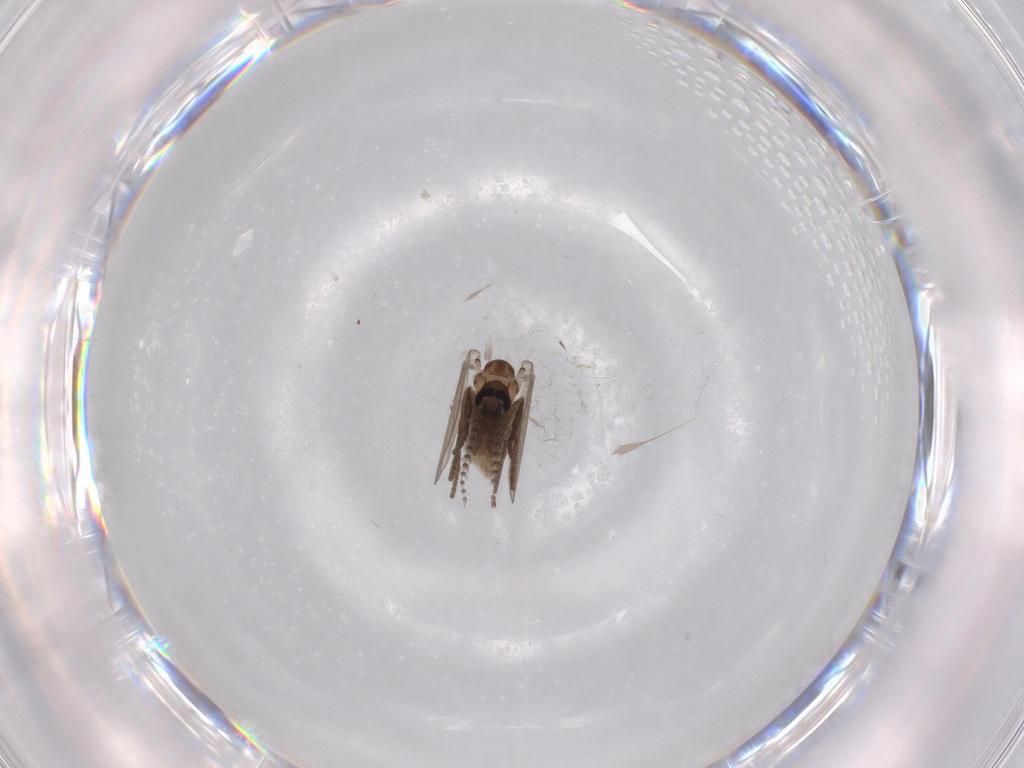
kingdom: Animalia
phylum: Arthropoda
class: Insecta
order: Diptera
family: Psychodidae
